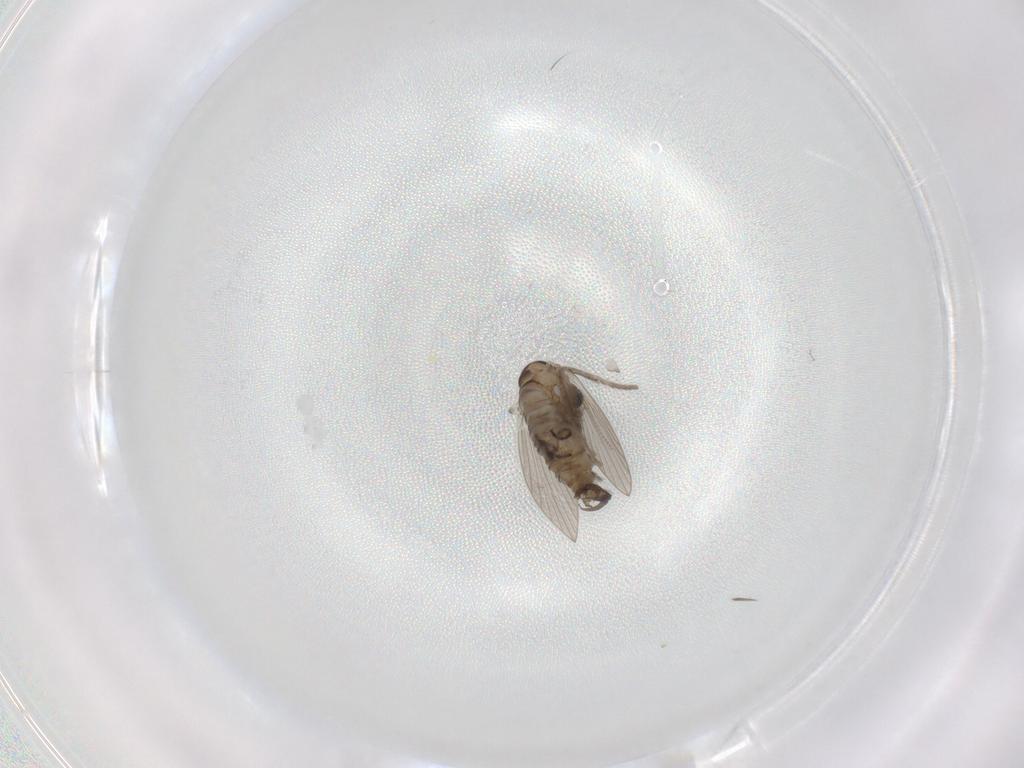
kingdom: Animalia
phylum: Arthropoda
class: Insecta
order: Diptera
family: Psychodidae
